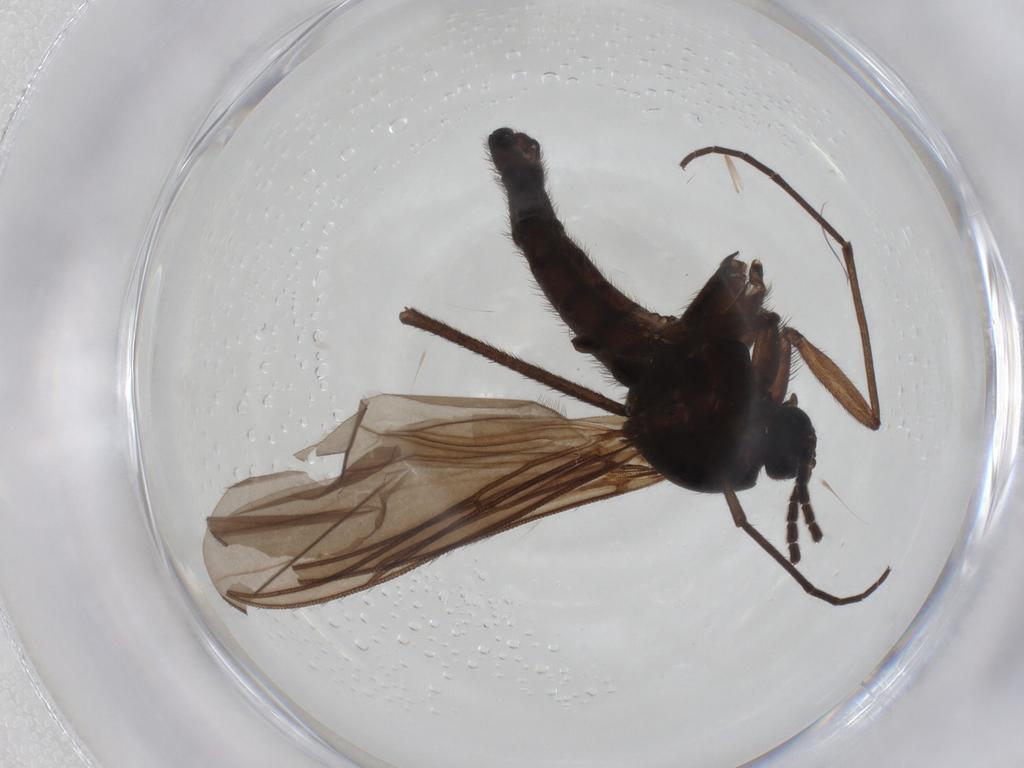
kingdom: Animalia
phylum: Arthropoda
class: Insecta
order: Diptera
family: Sciaridae
